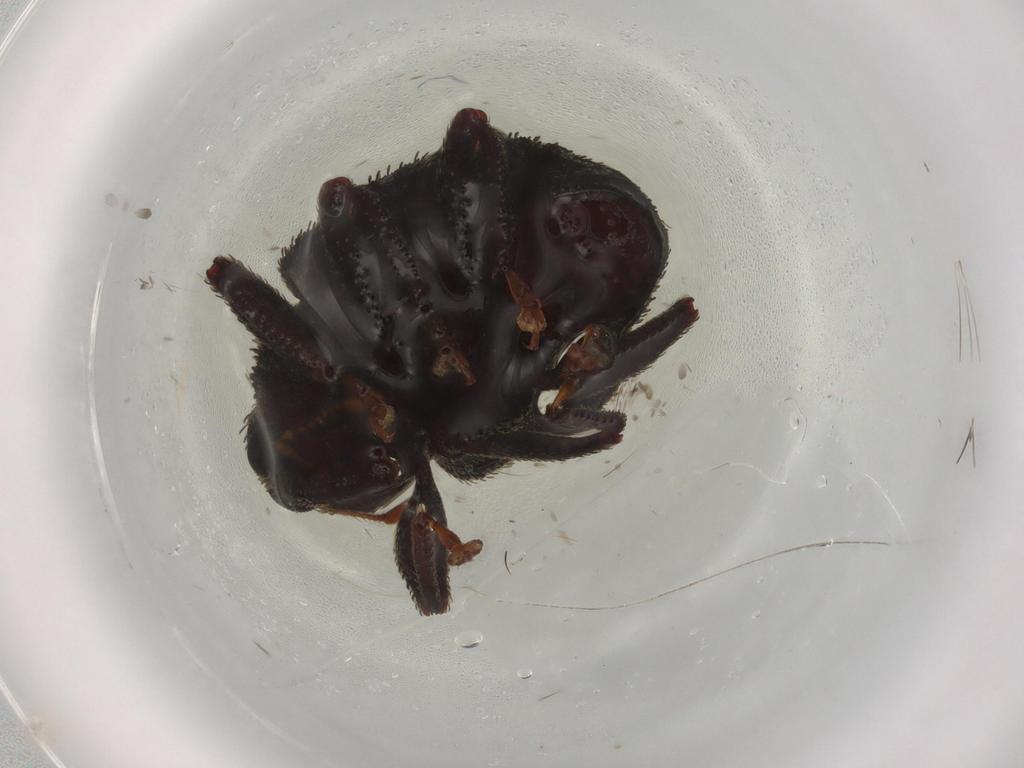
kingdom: Animalia
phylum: Arthropoda
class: Insecta
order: Coleoptera
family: Curculionidae
